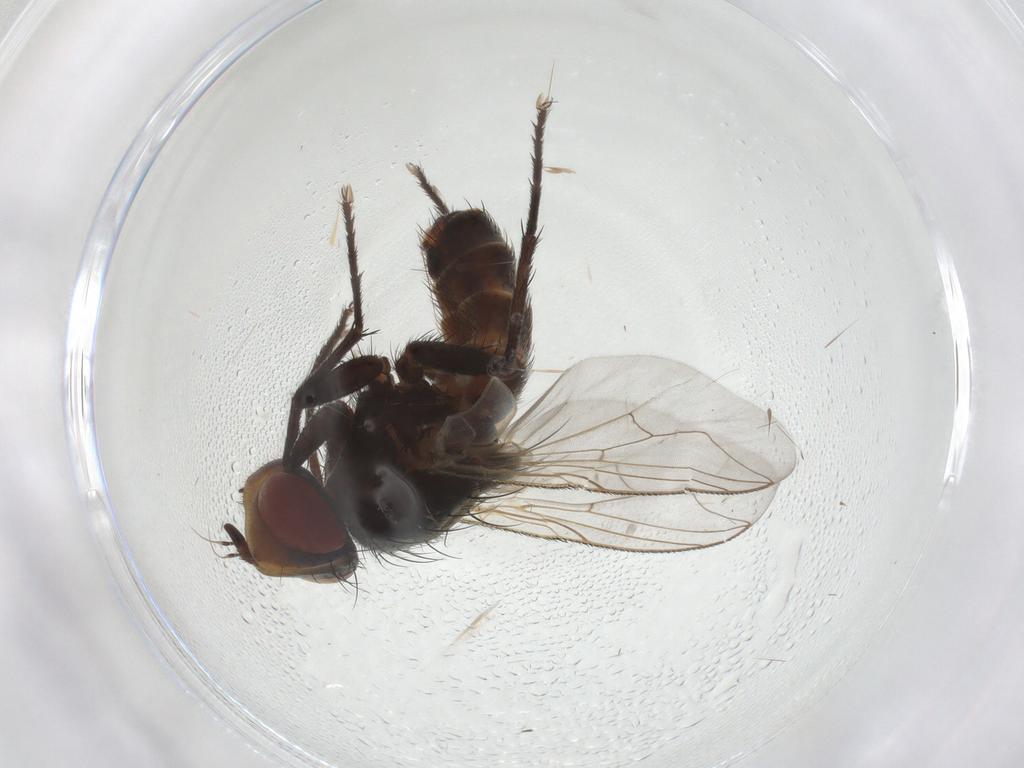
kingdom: Animalia
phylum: Arthropoda
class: Insecta
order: Diptera
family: Sarcophagidae
